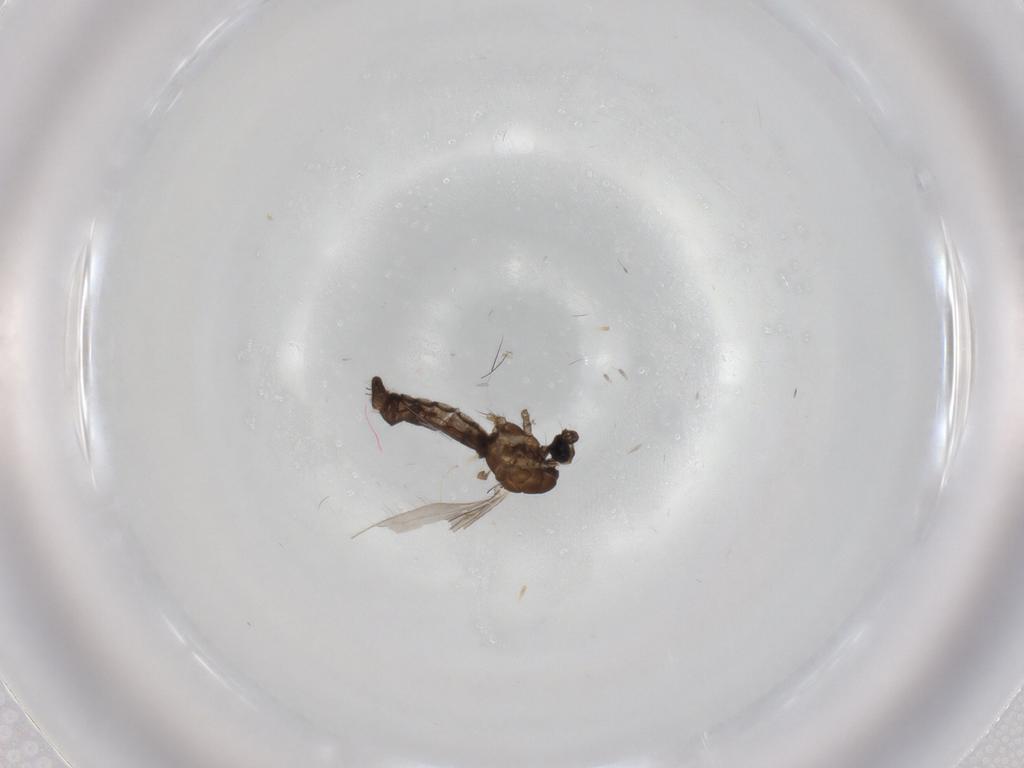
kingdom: Animalia
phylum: Arthropoda
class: Insecta
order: Diptera
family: Limoniidae
